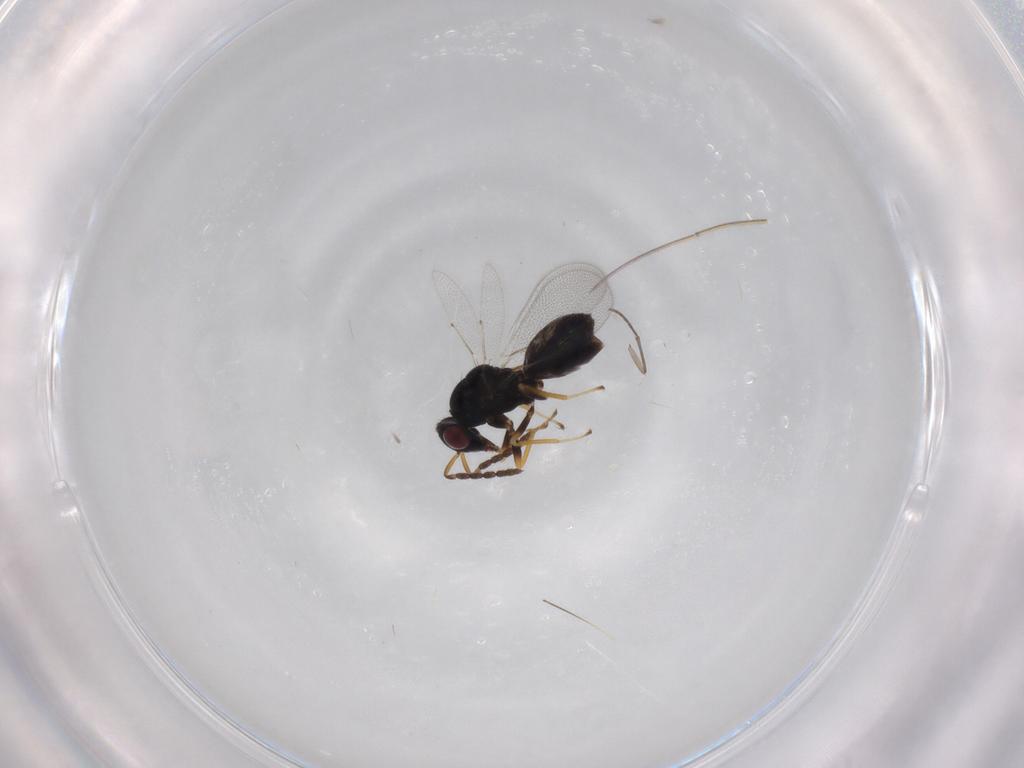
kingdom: Animalia
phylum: Arthropoda
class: Insecta
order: Hymenoptera
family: Eulophidae
